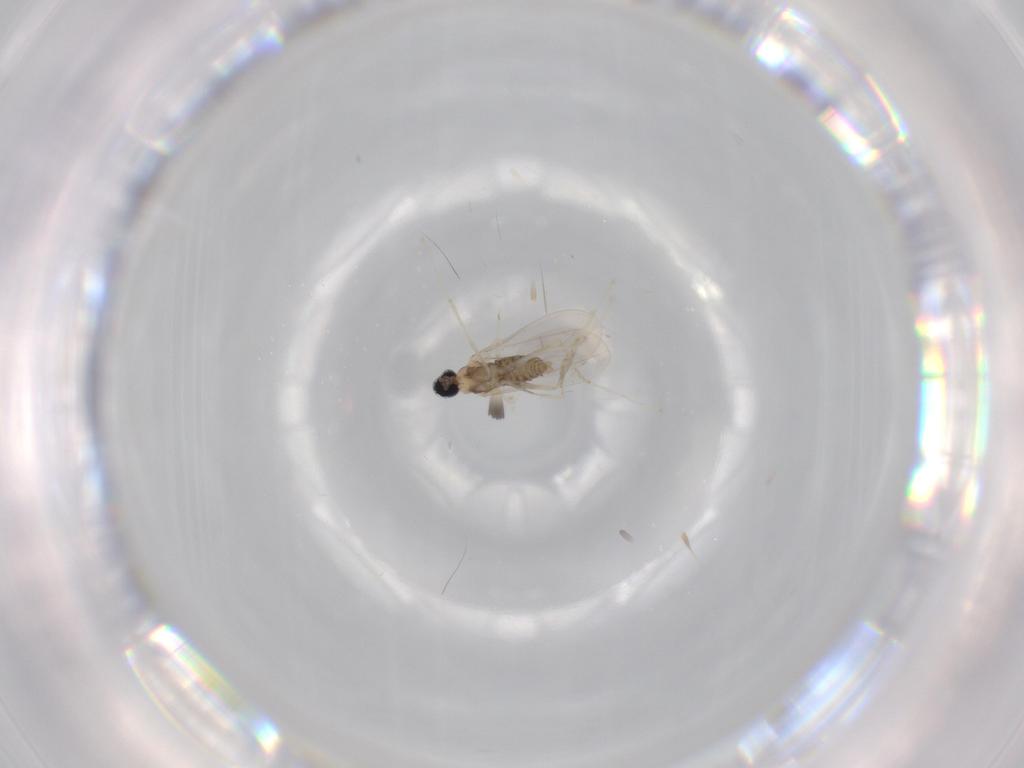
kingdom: Animalia
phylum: Arthropoda
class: Insecta
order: Diptera
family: Cecidomyiidae
